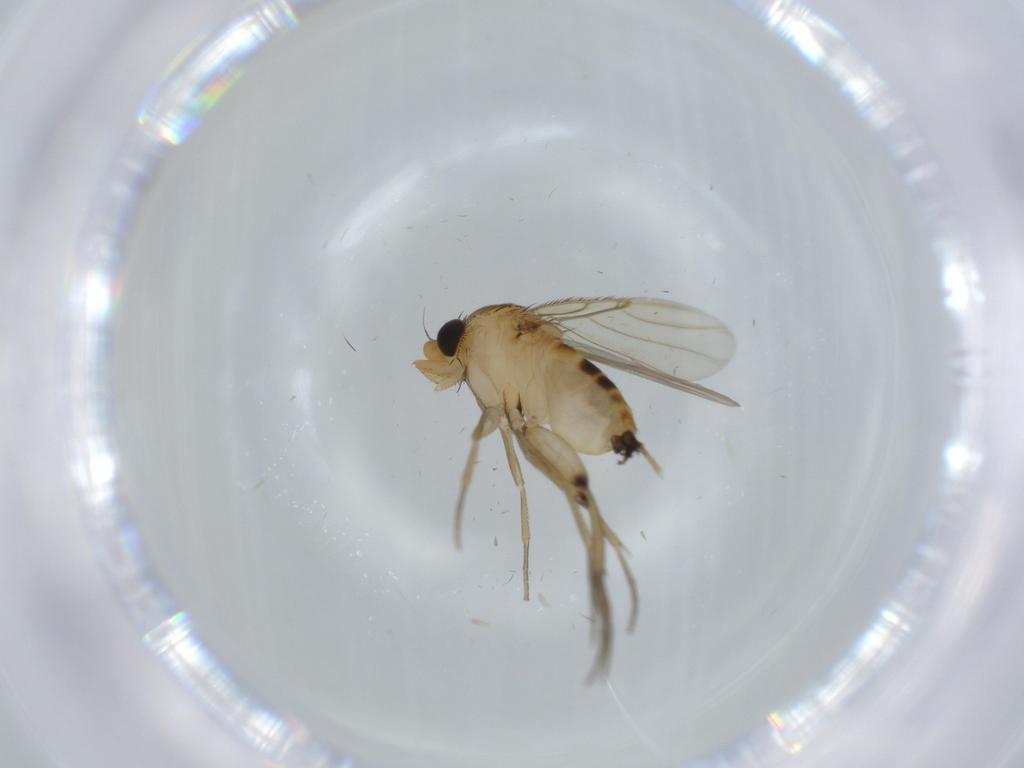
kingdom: Animalia
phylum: Arthropoda
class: Insecta
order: Diptera
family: Phoridae
